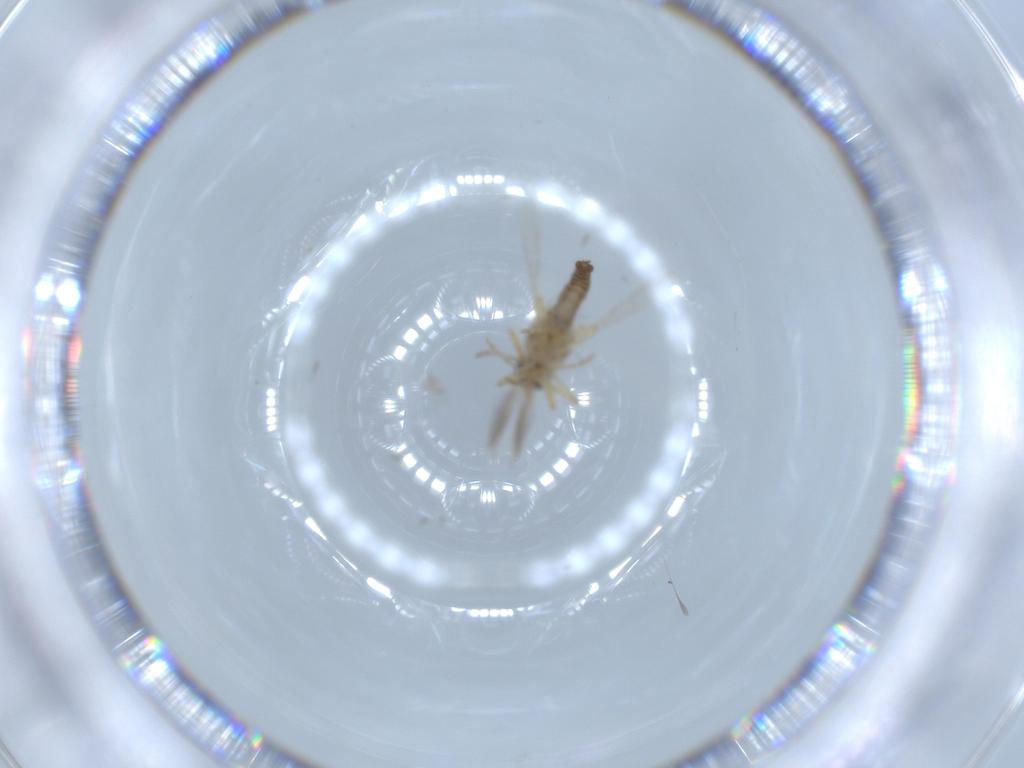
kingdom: Animalia
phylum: Arthropoda
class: Insecta
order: Diptera
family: Ceratopogonidae
